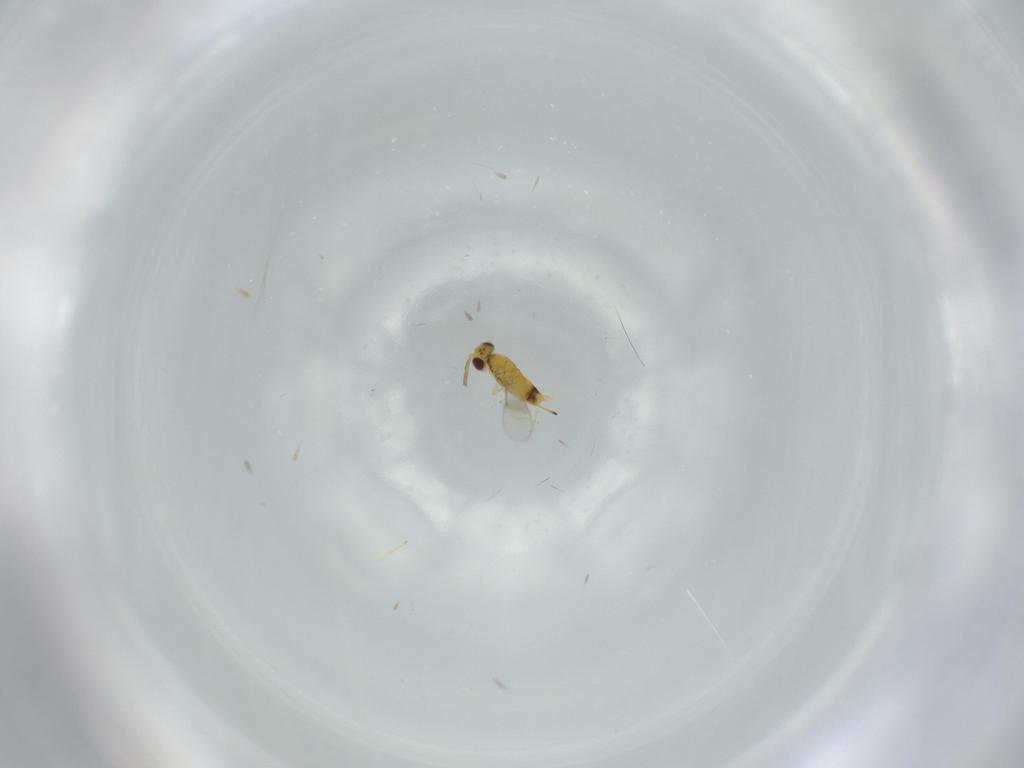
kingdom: Animalia
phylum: Arthropoda
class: Insecta
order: Hymenoptera
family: Aphelinidae
